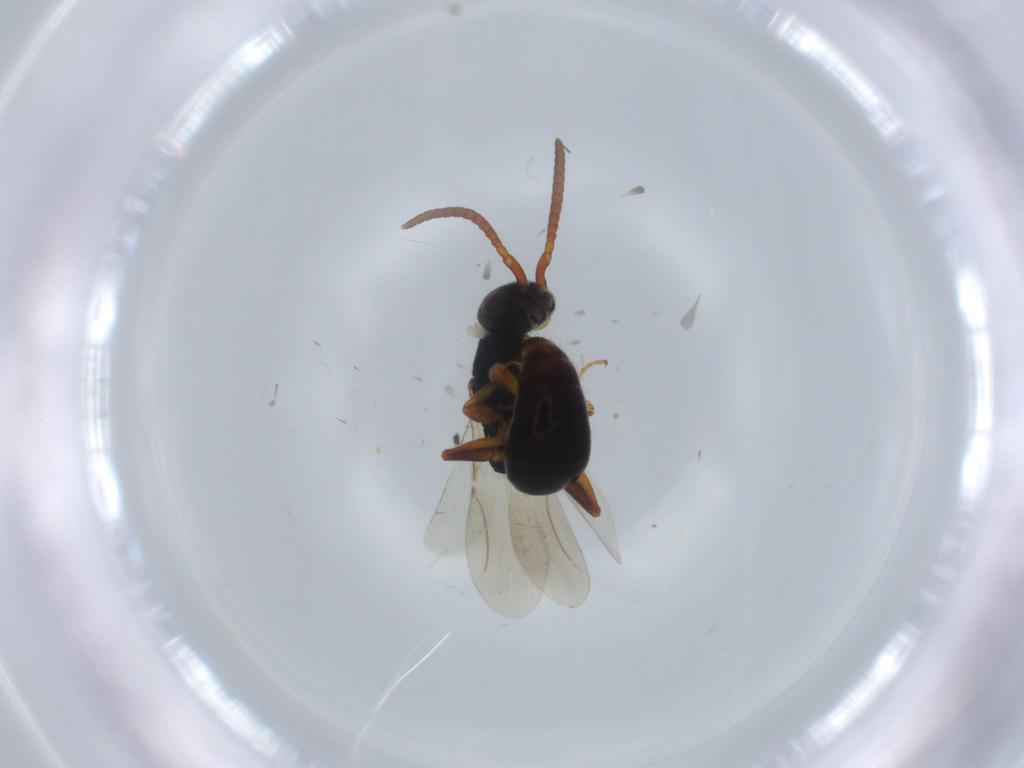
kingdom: Animalia
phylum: Arthropoda
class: Insecta
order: Hymenoptera
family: Bethylidae
